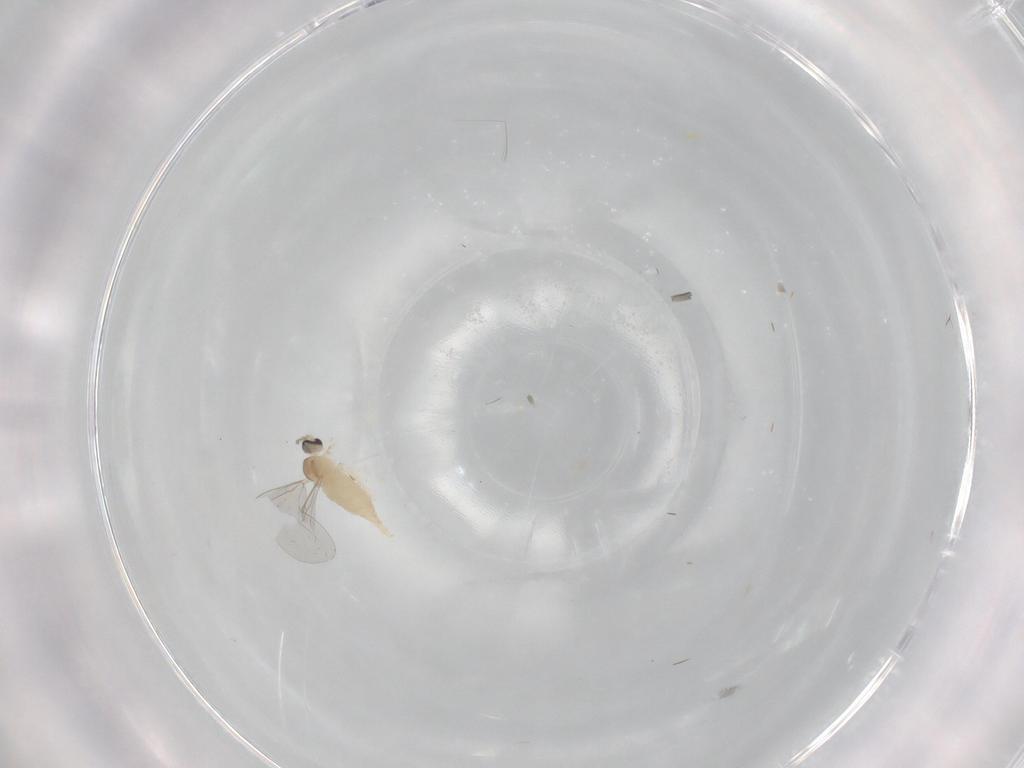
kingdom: Animalia
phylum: Arthropoda
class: Insecta
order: Diptera
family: Cecidomyiidae
